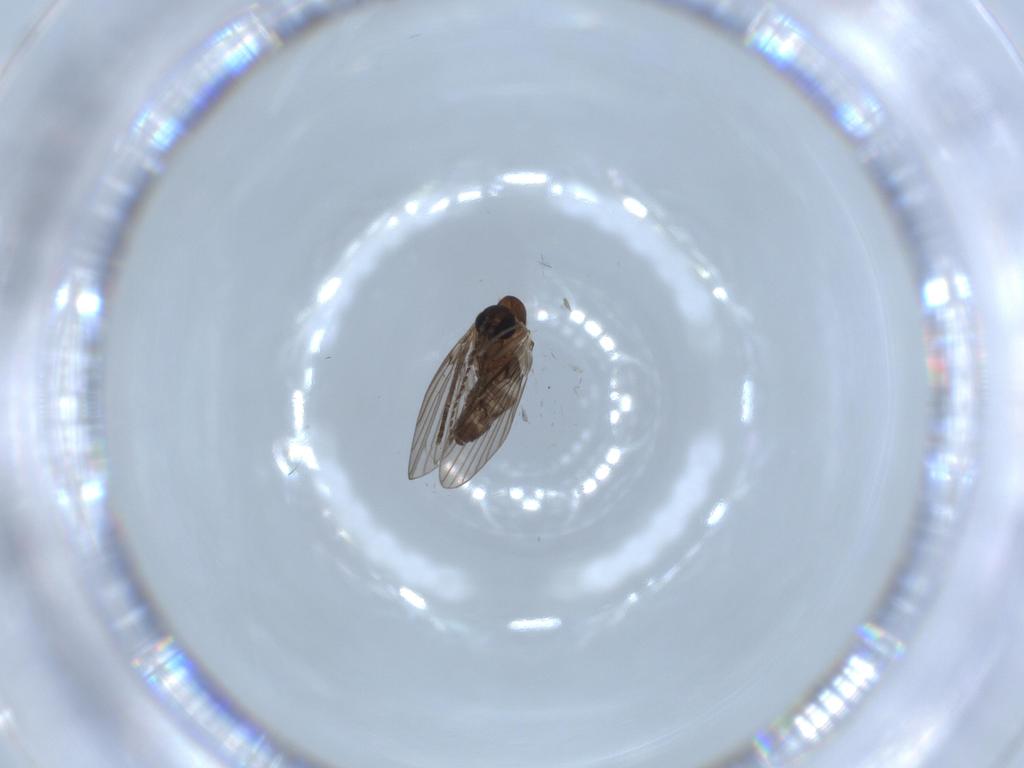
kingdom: Animalia
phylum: Arthropoda
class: Insecta
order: Diptera
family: Psychodidae
